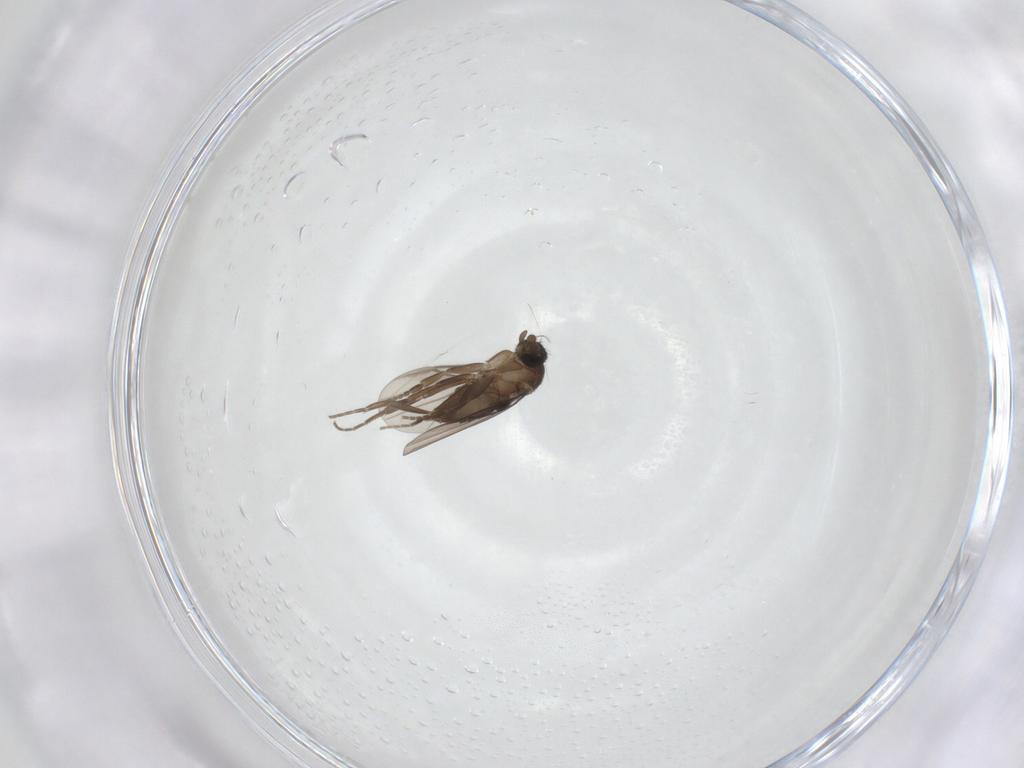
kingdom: Animalia
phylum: Arthropoda
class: Insecta
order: Diptera
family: Phoridae
